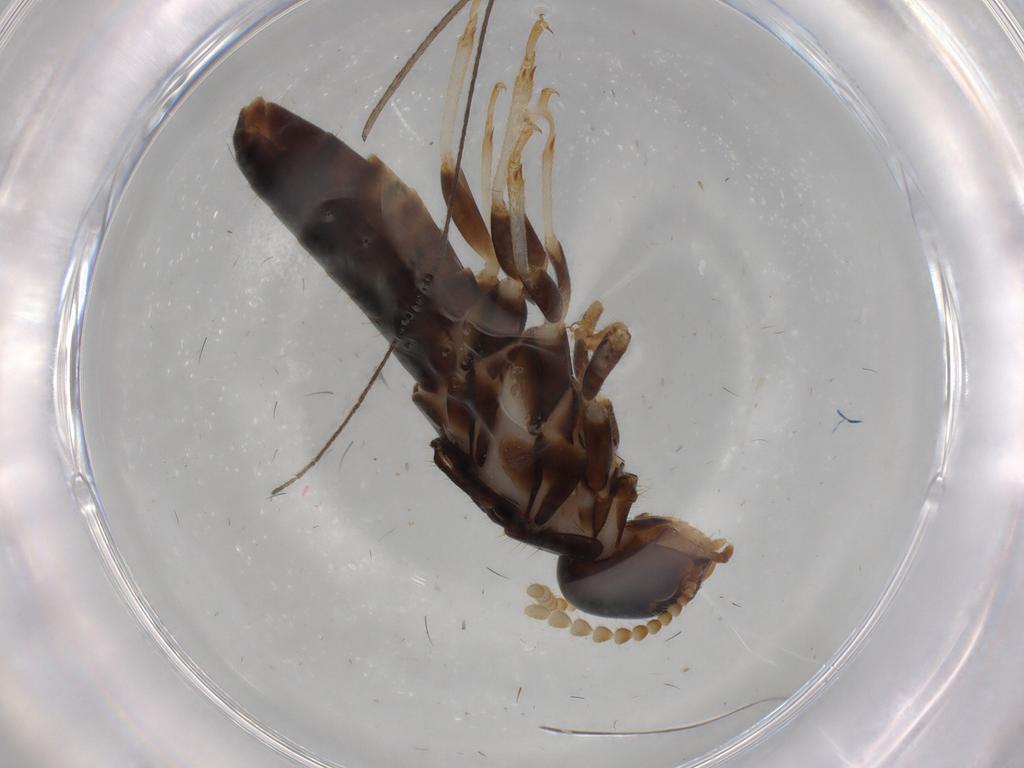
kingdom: Animalia
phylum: Arthropoda
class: Insecta
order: Blattodea
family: Kalotermitidae
